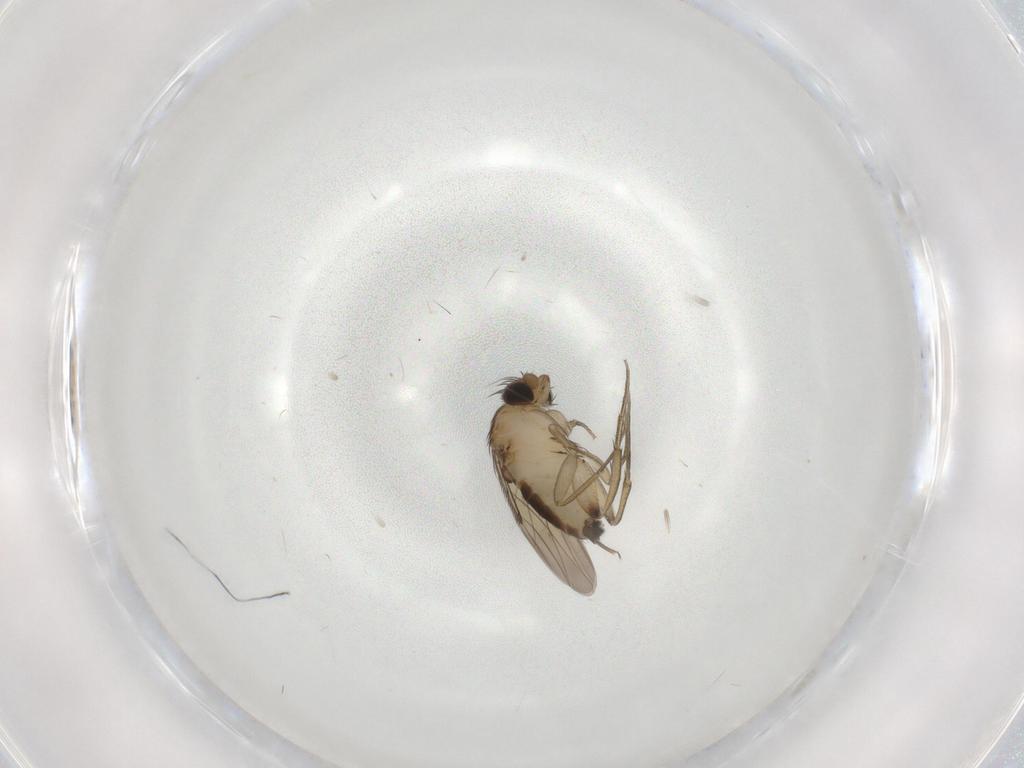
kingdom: Animalia
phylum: Arthropoda
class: Insecta
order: Diptera
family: Phoridae
